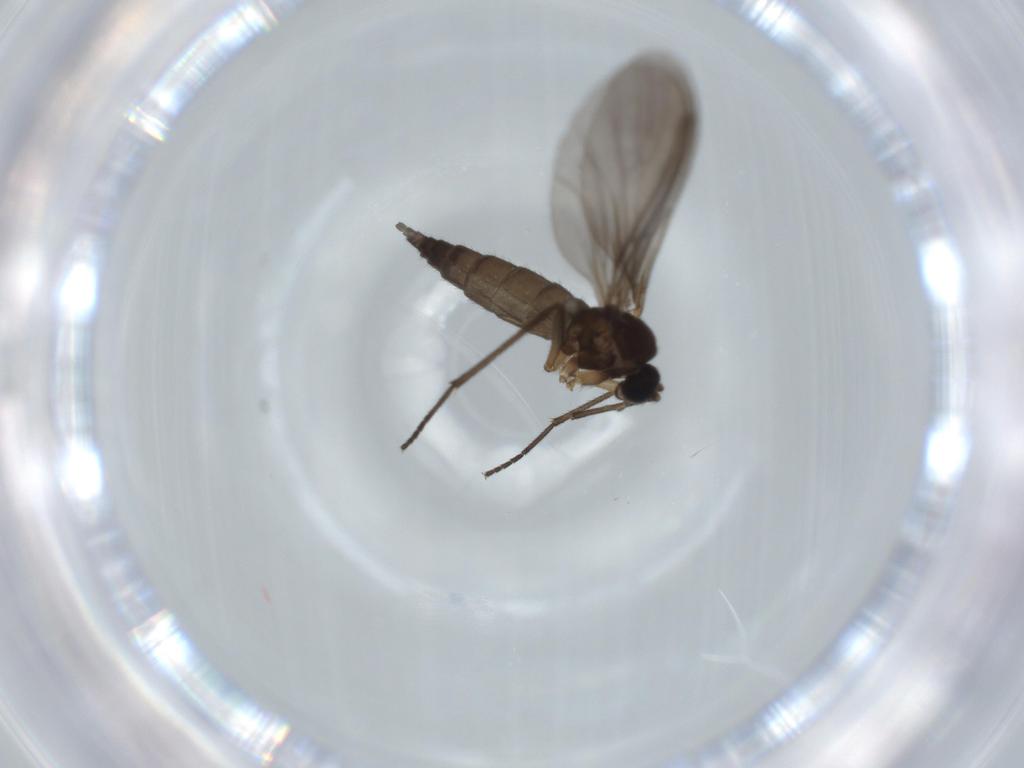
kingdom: Animalia
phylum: Arthropoda
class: Insecta
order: Diptera
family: Sciaridae
